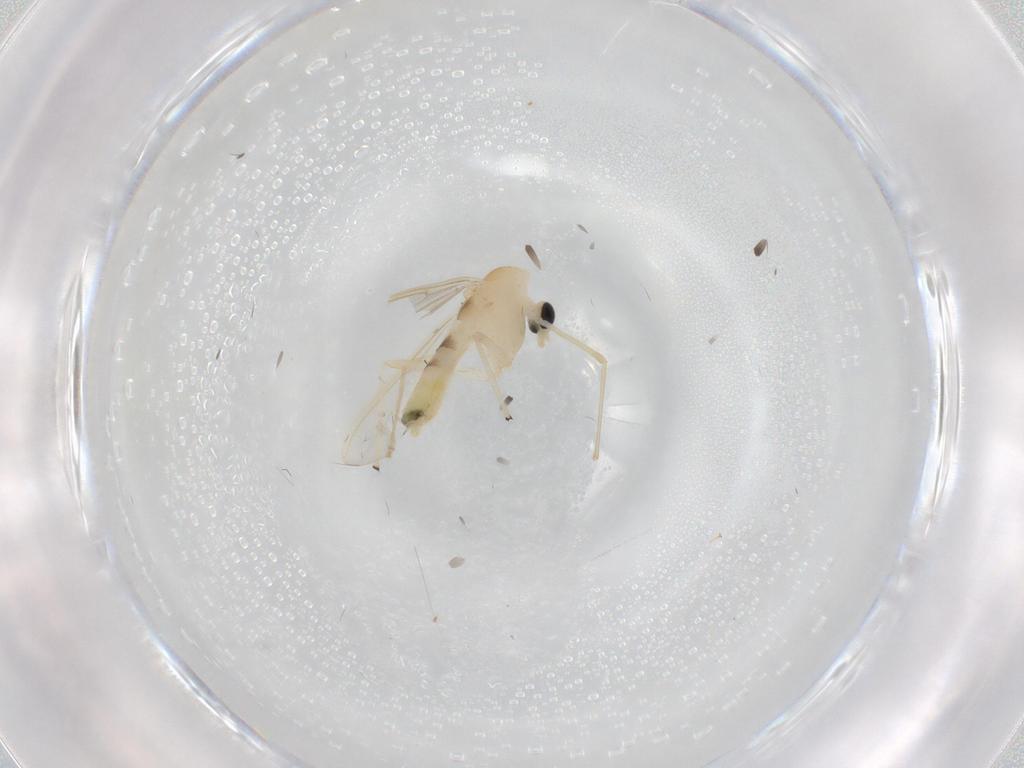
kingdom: Animalia
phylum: Arthropoda
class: Insecta
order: Diptera
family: Chironomidae
